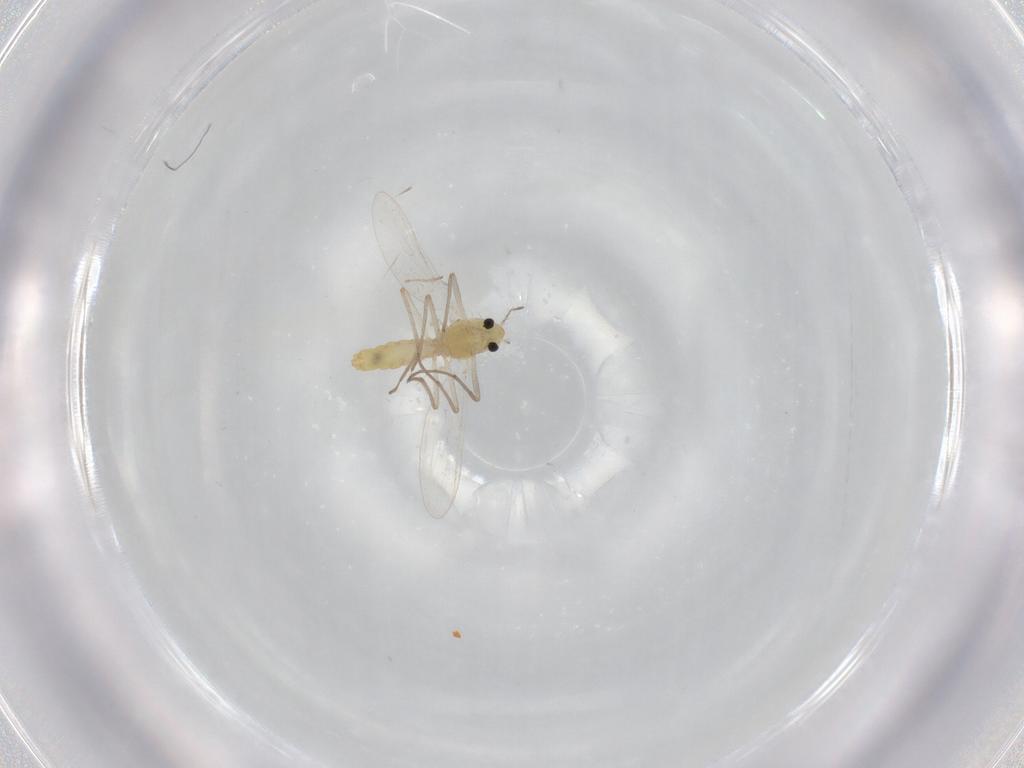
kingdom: Animalia
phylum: Arthropoda
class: Insecta
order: Diptera
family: Chironomidae
